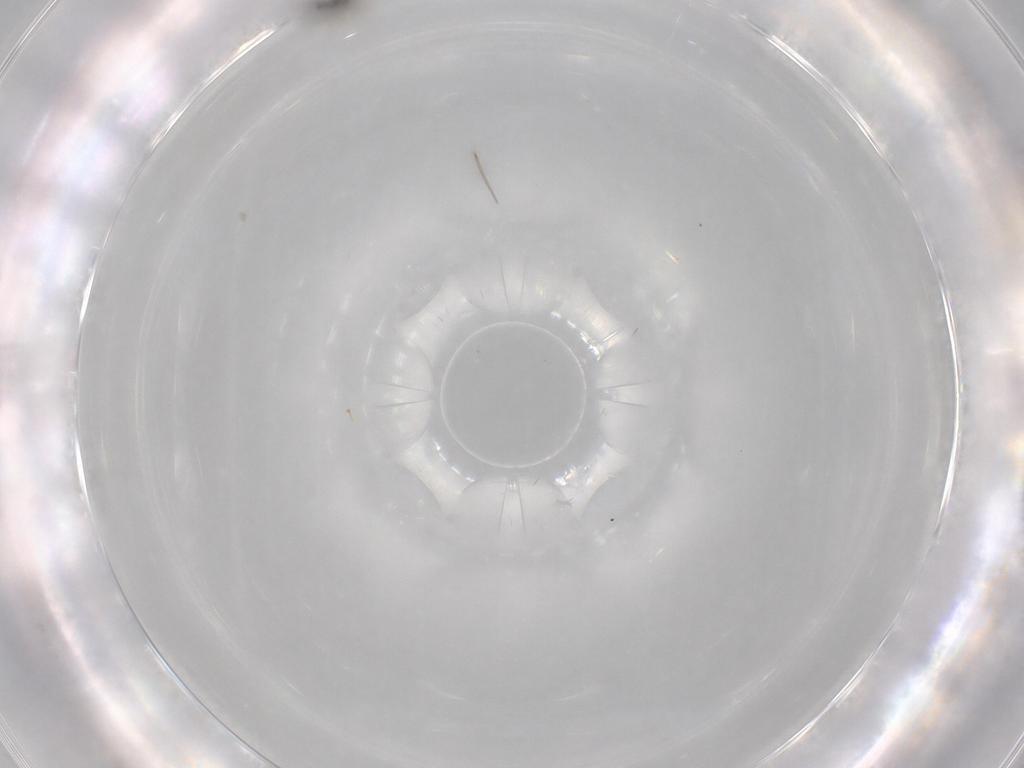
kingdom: Animalia
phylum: Arthropoda
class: Insecta
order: Hymenoptera
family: Mymaridae
